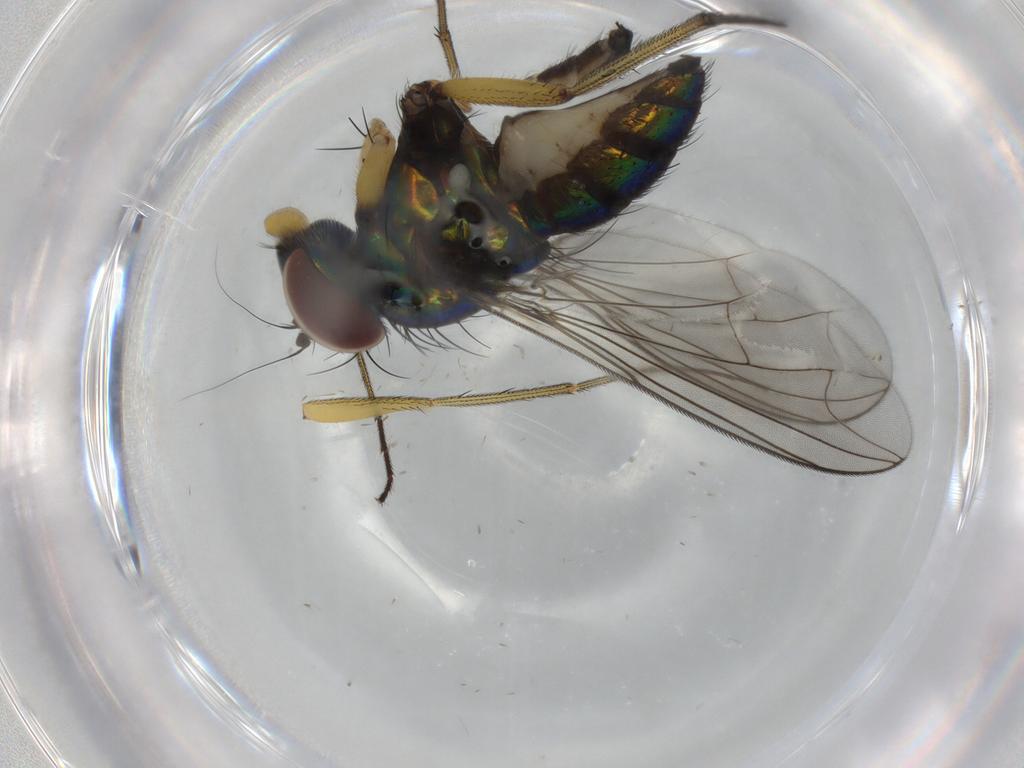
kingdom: Animalia
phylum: Arthropoda
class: Insecta
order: Diptera
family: Dolichopodidae
